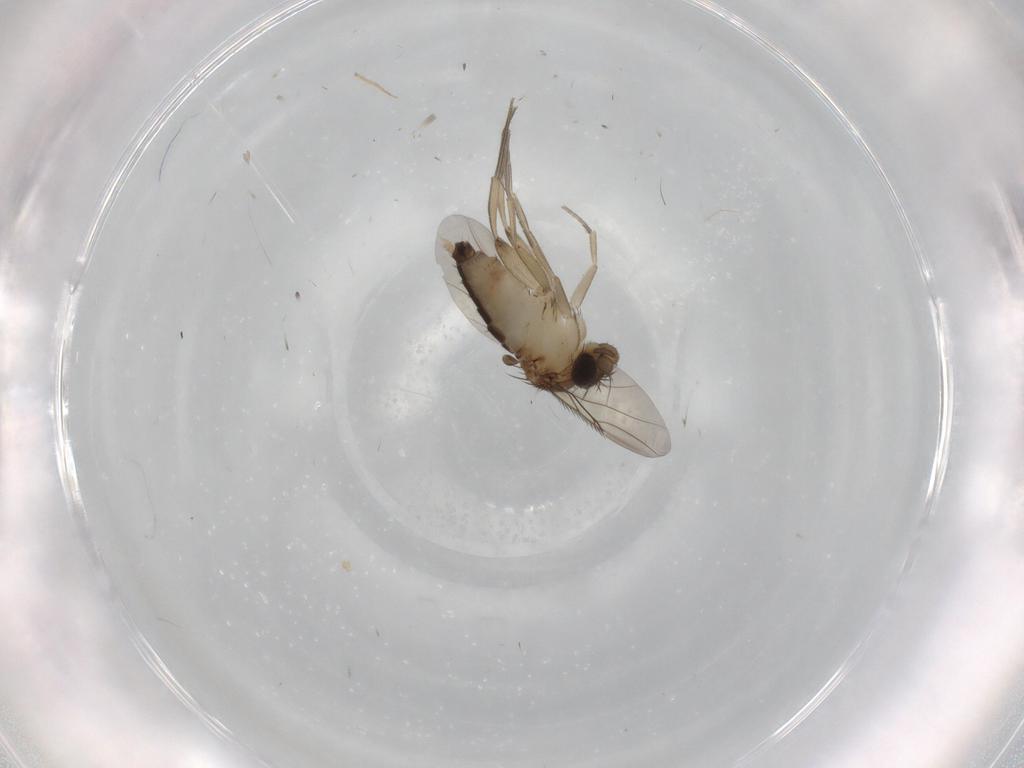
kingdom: Animalia
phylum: Arthropoda
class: Insecta
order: Diptera
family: Phoridae
